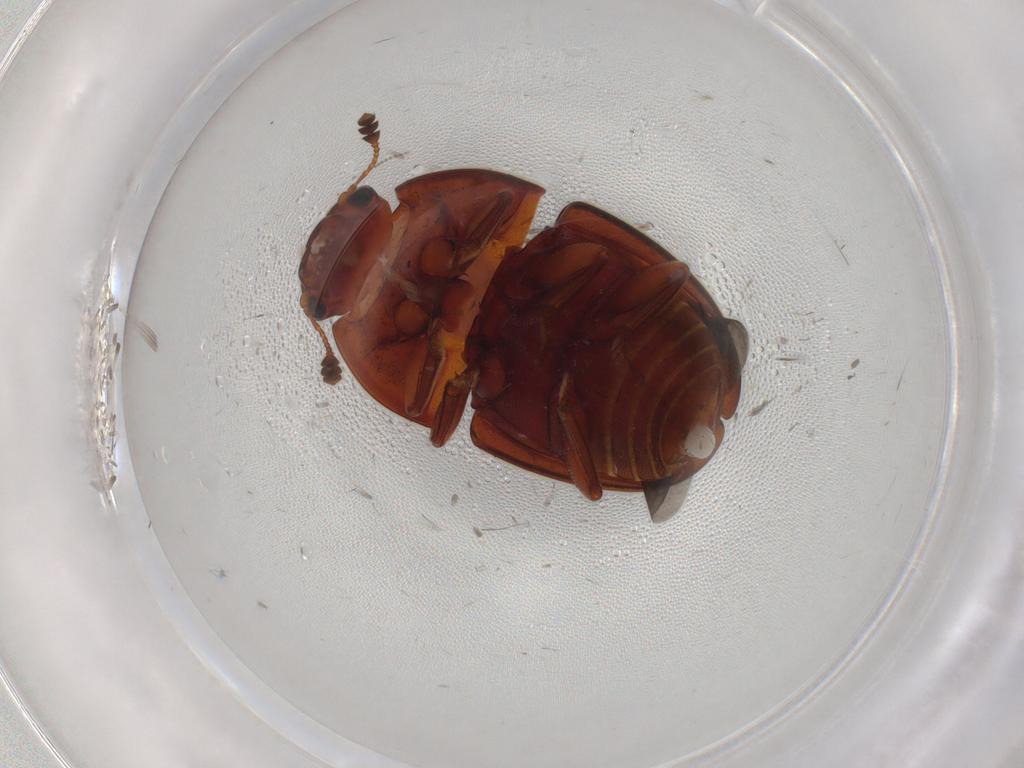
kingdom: Animalia
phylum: Arthropoda
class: Insecta
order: Coleoptera
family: Nitidulidae
